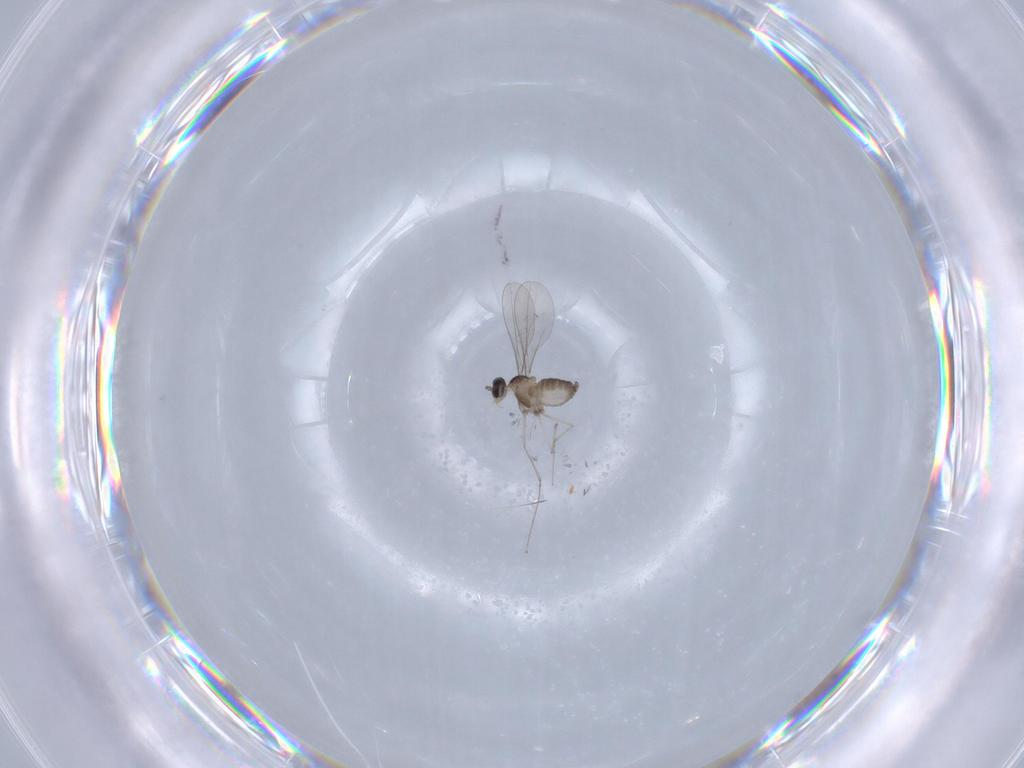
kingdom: Animalia
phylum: Arthropoda
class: Insecta
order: Diptera
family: Cecidomyiidae
